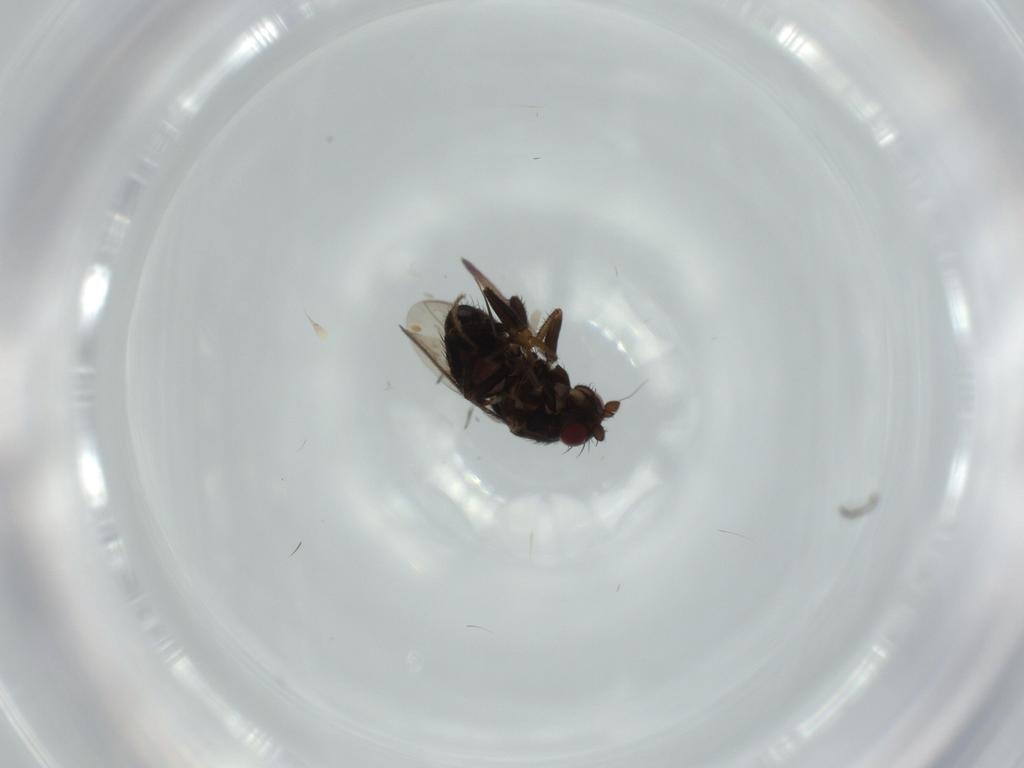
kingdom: Animalia
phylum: Arthropoda
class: Insecta
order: Diptera
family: Sphaeroceridae
